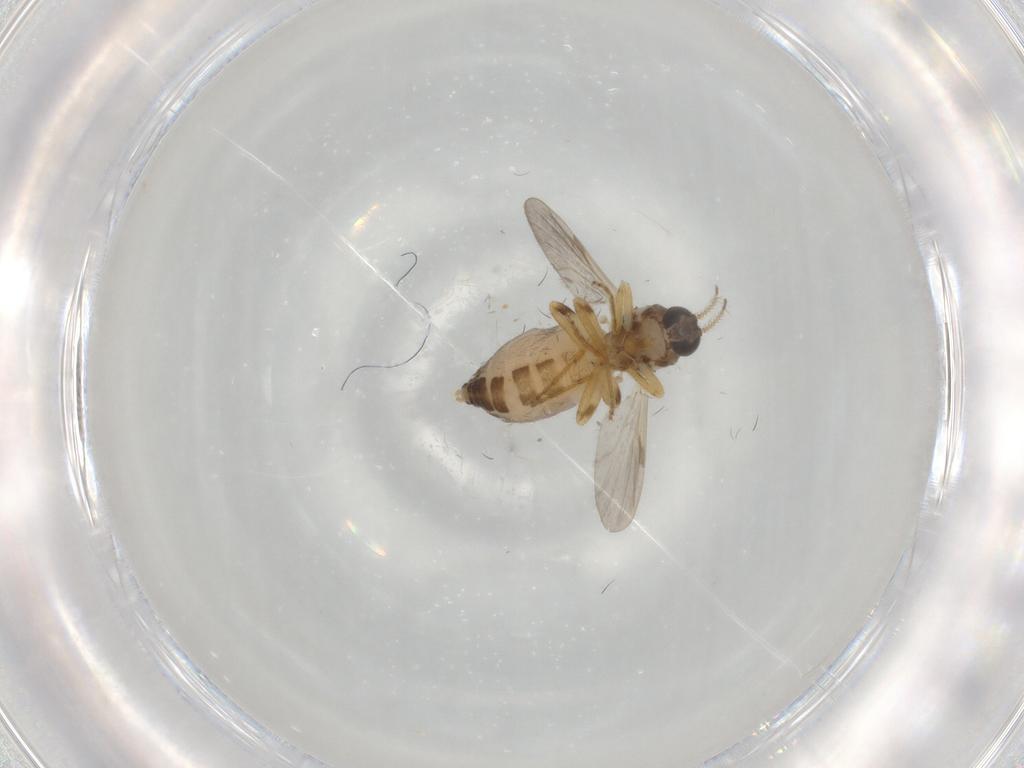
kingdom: Animalia
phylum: Arthropoda
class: Insecta
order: Diptera
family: Ceratopogonidae
